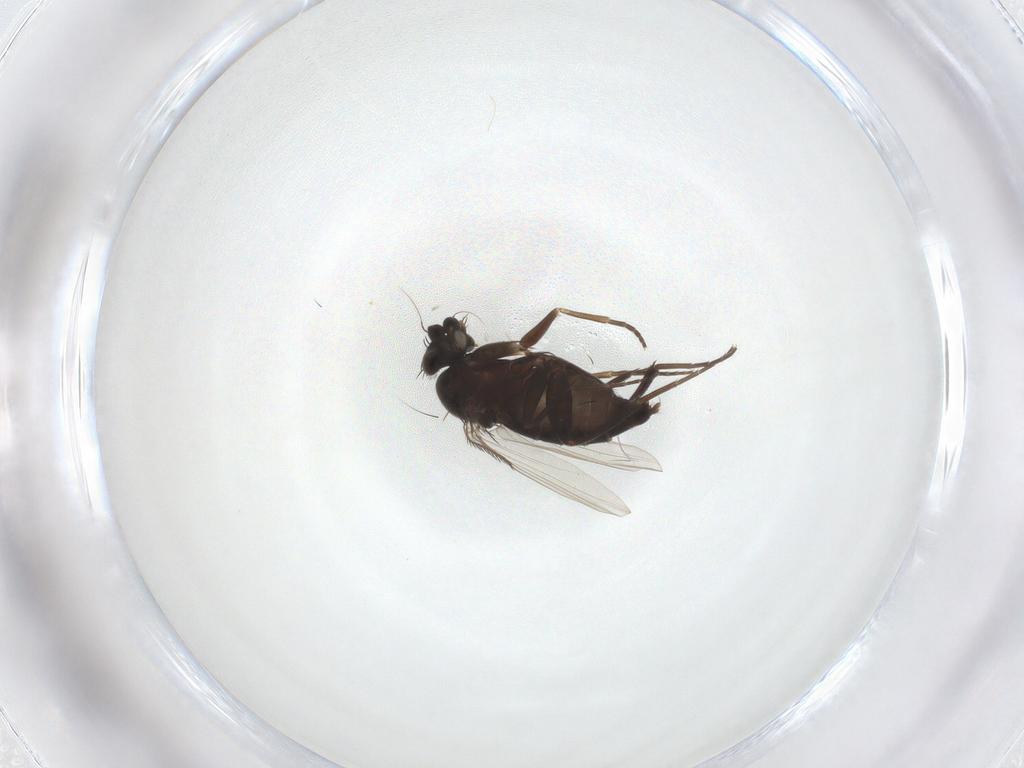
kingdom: Animalia
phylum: Arthropoda
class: Insecta
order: Diptera
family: Phoridae
